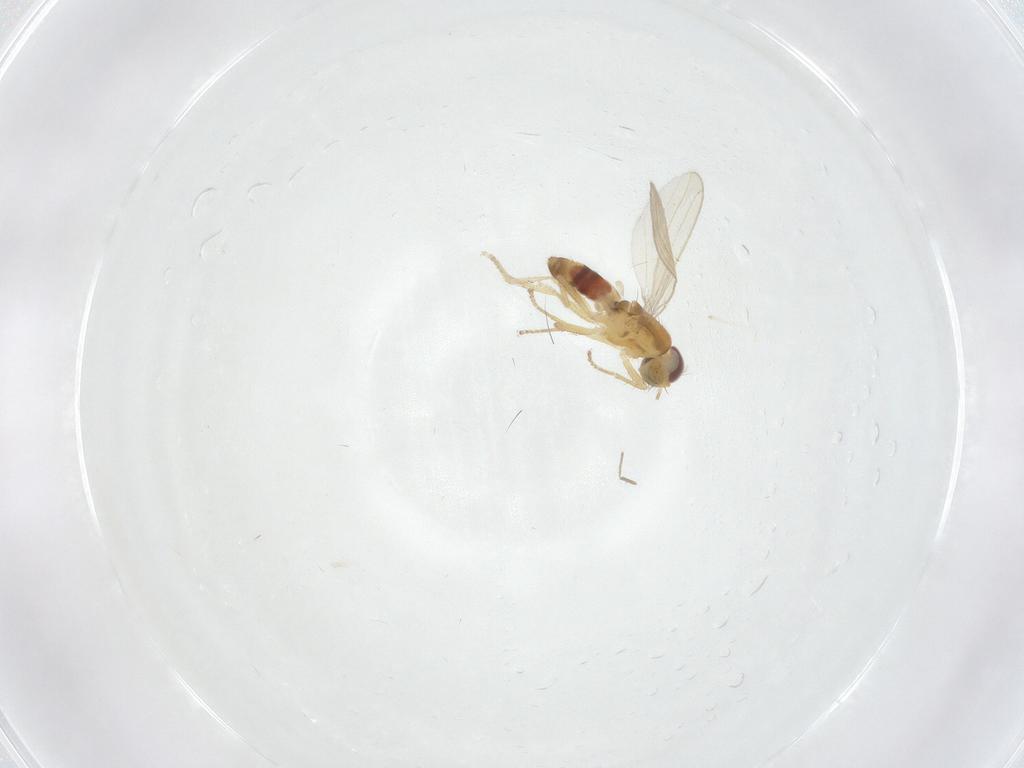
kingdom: Animalia
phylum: Arthropoda
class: Insecta
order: Diptera
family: Periscelididae
